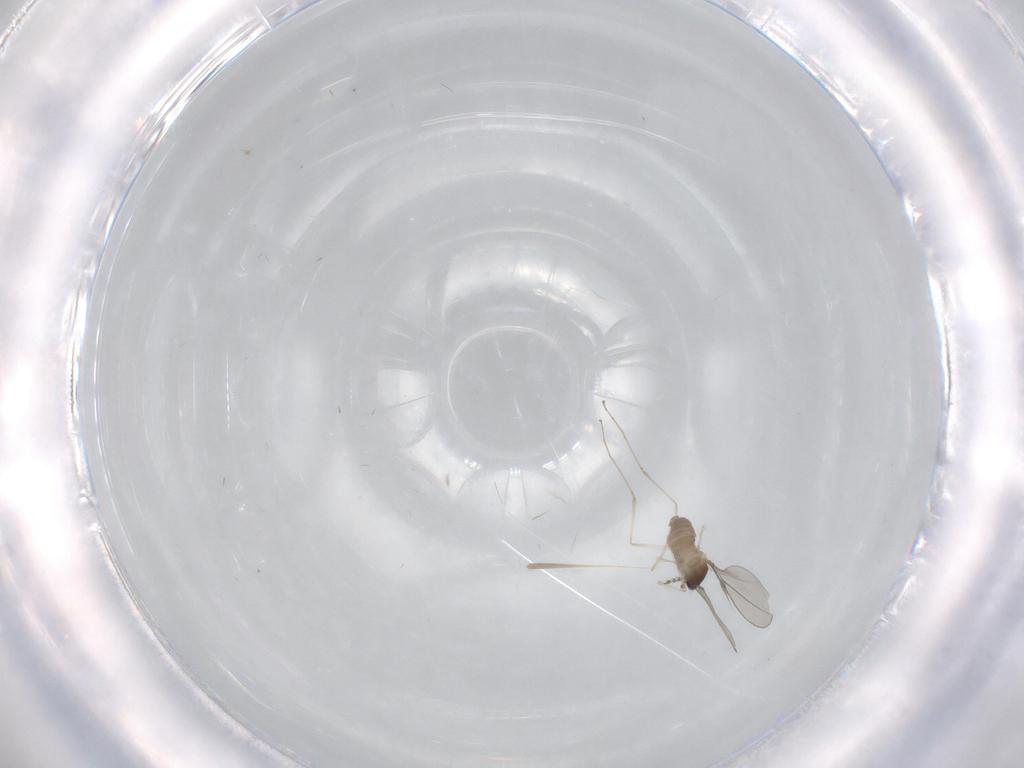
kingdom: Animalia
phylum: Arthropoda
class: Insecta
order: Diptera
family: Cecidomyiidae
